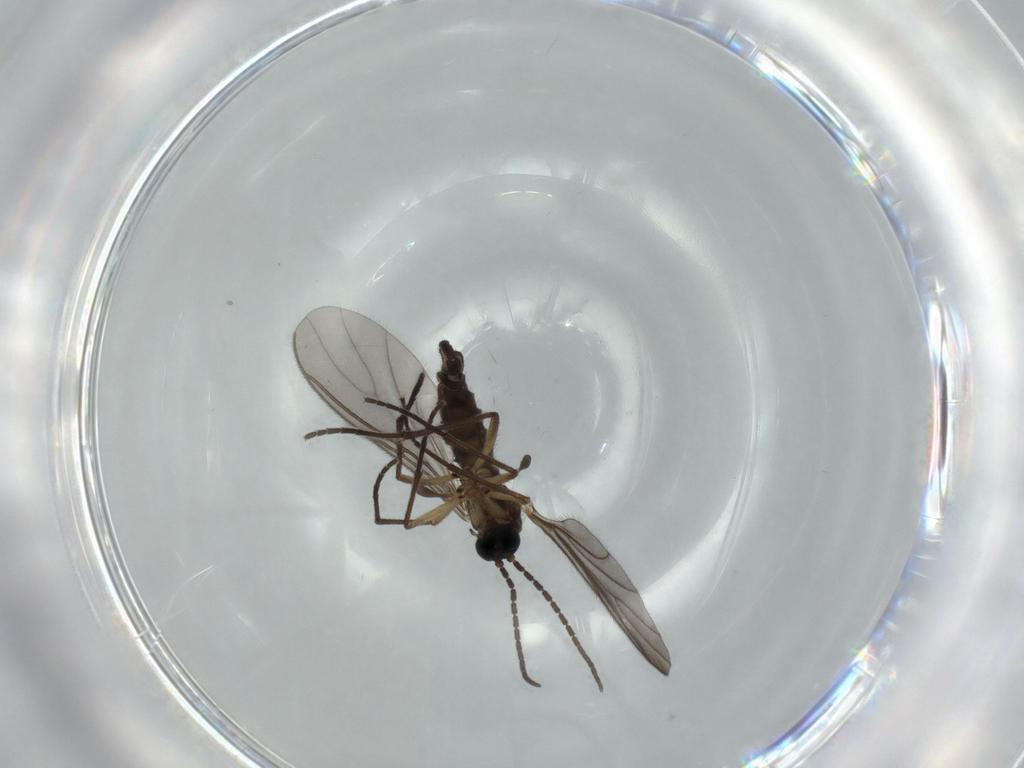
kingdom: Animalia
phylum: Arthropoda
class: Insecta
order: Diptera
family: Sciaridae
